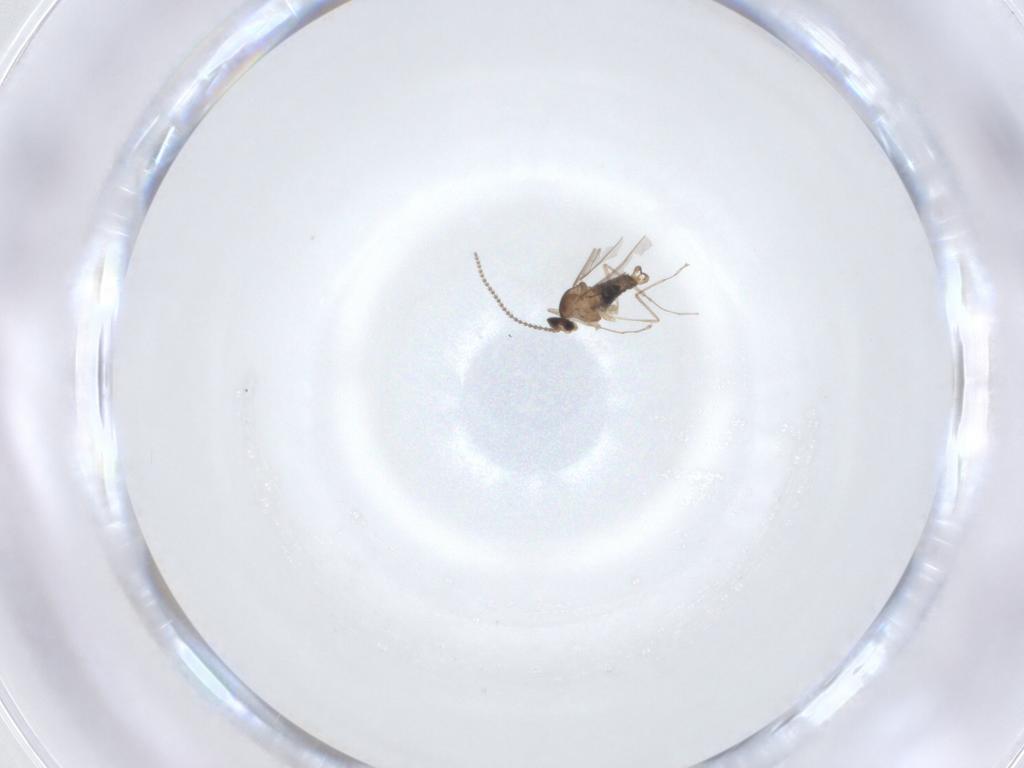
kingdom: Animalia
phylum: Arthropoda
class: Insecta
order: Diptera
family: Cecidomyiidae
